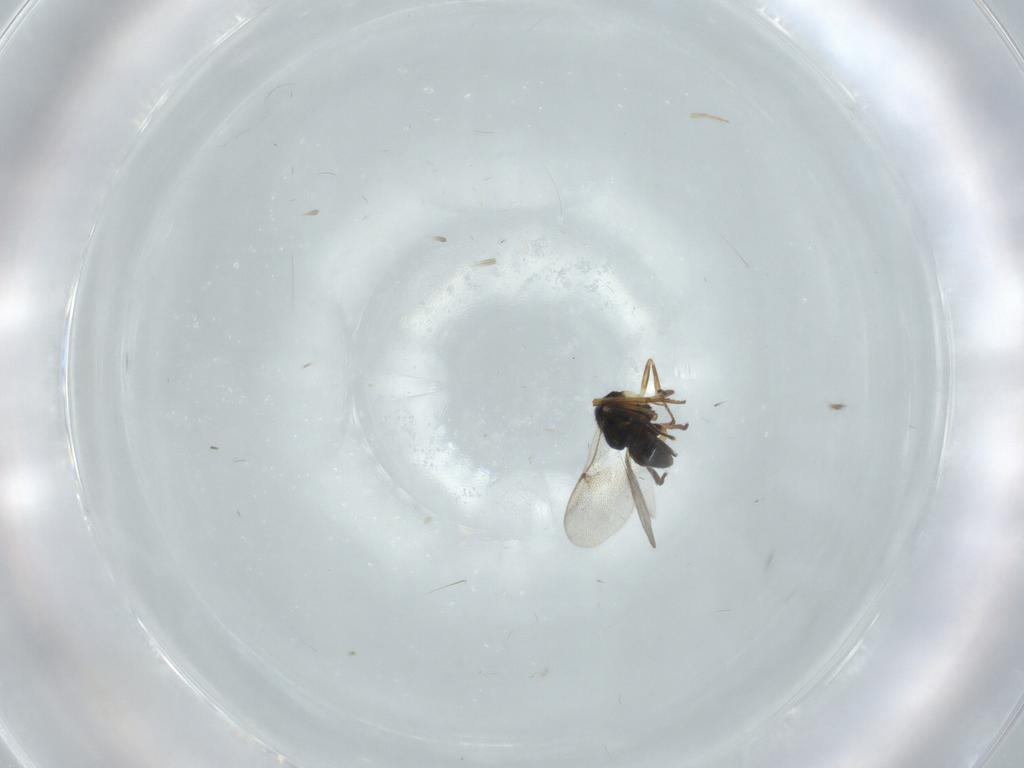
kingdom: Animalia
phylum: Arthropoda
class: Insecta
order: Hymenoptera
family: Encyrtidae
